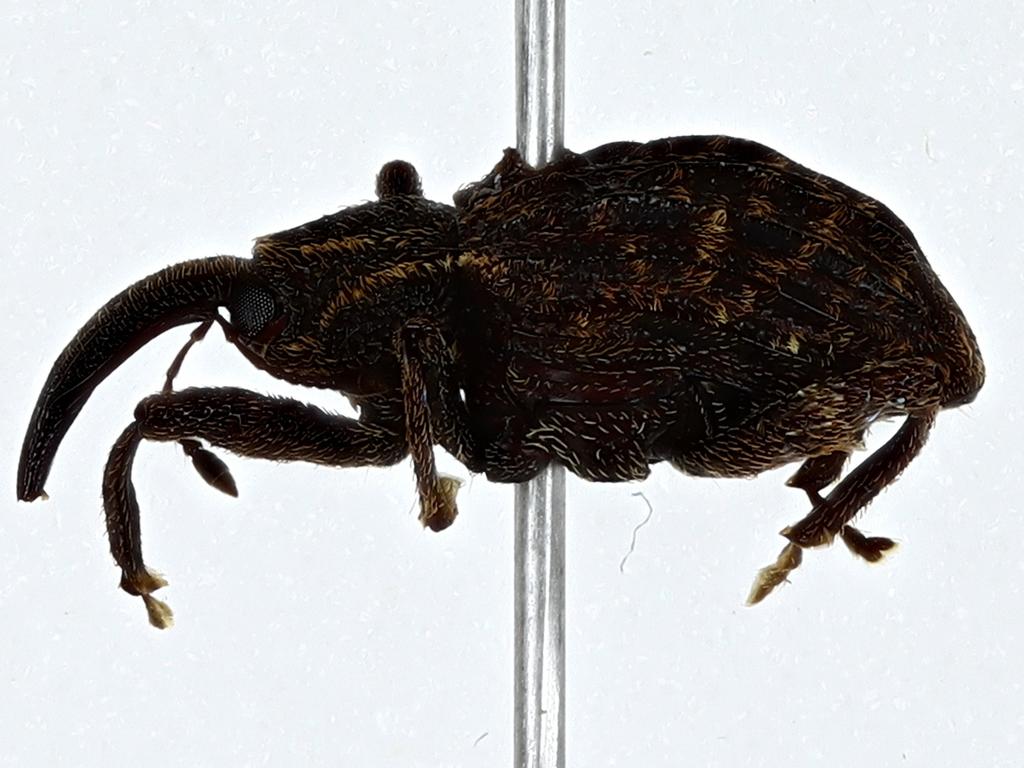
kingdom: Animalia
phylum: Arthropoda
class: Insecta
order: Coleoptera
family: Curculionidae
